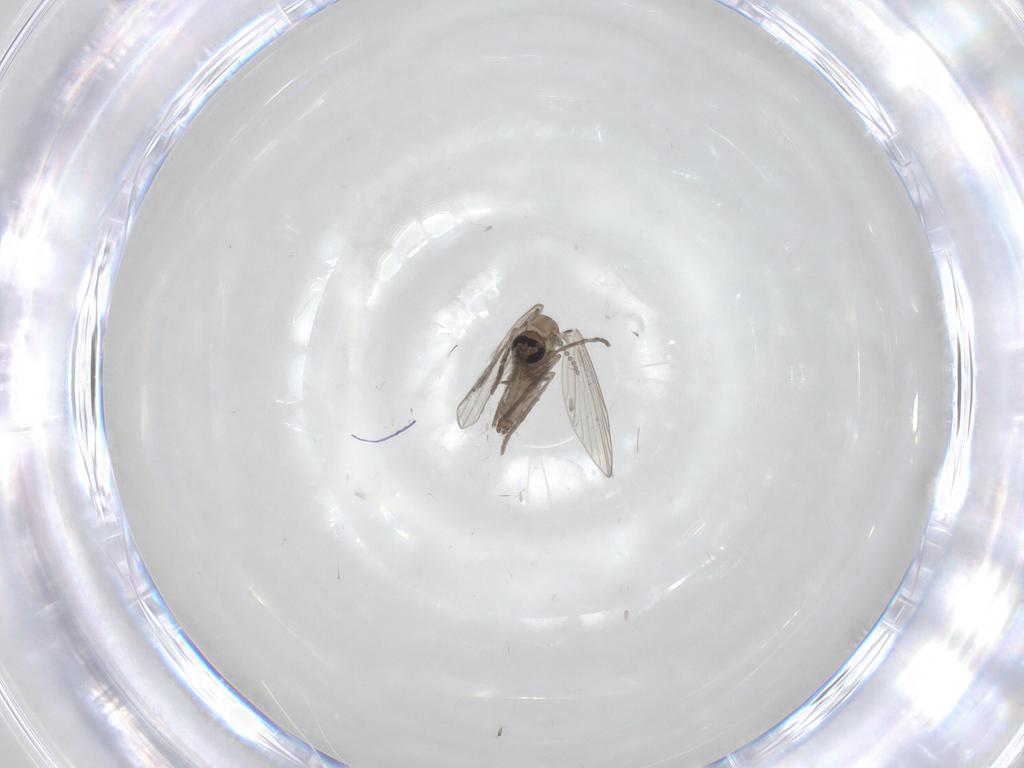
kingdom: Animalia
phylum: Arthropoda
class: Insecta
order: Diptera
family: Psychodidae
